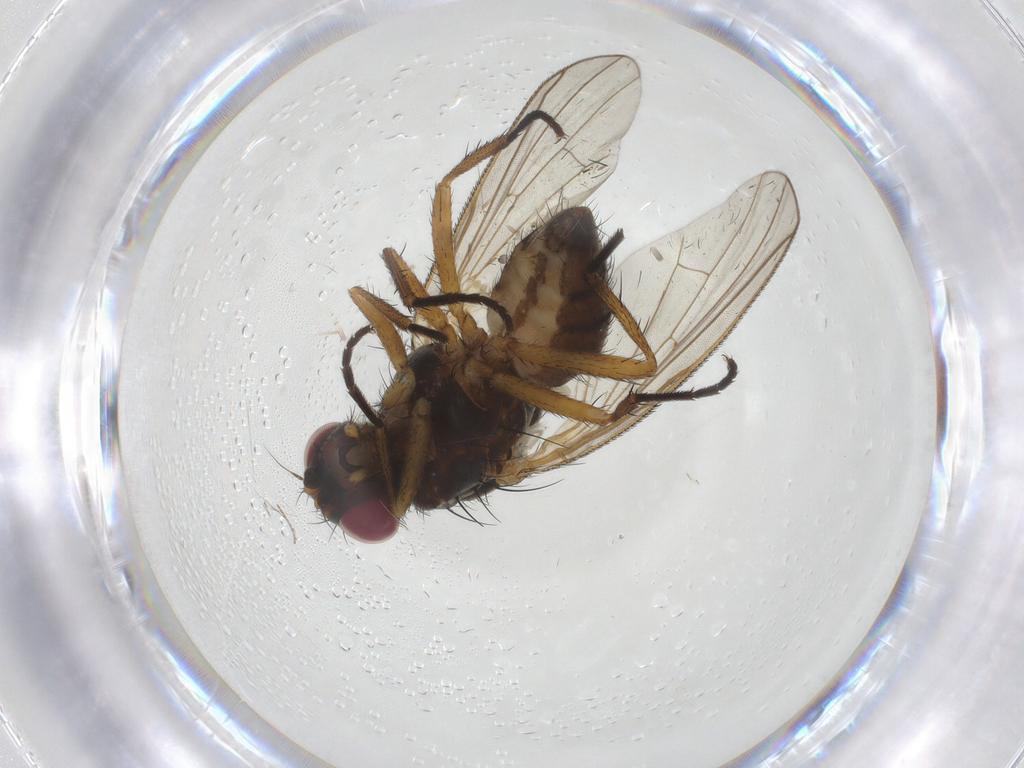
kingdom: Animalia
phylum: Arthropoda
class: Insecta
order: Diptera
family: Anthomyiidae
